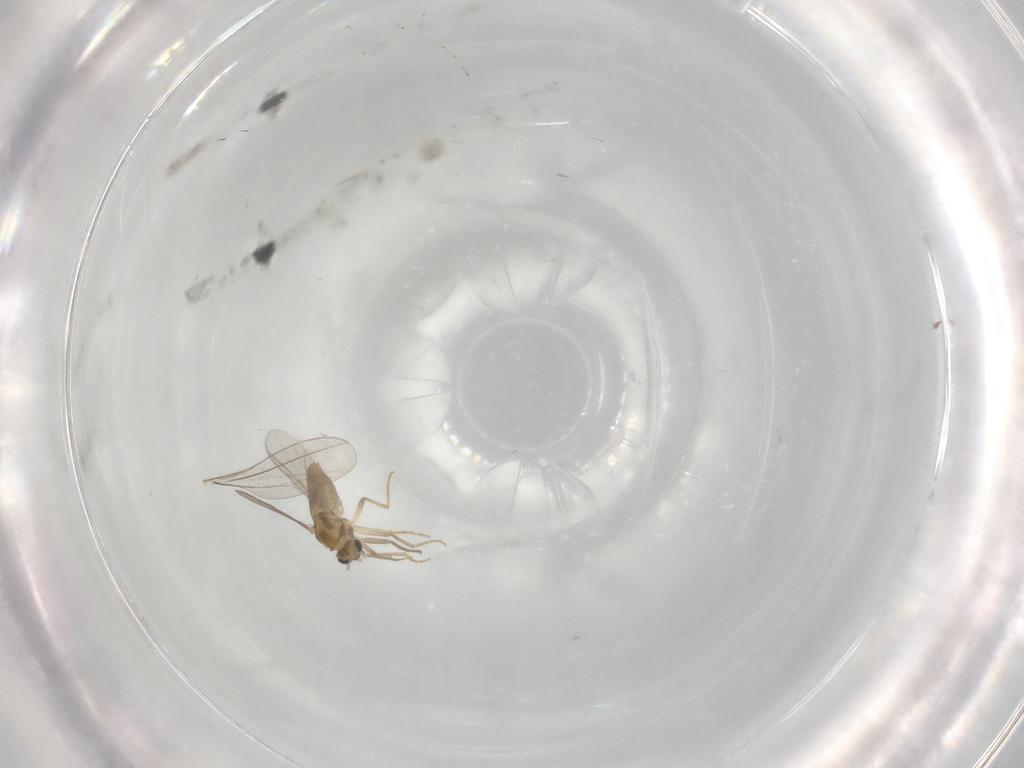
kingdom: Animalia
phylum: Arthropoda
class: Insecta
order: Diptera
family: Chironomidae
